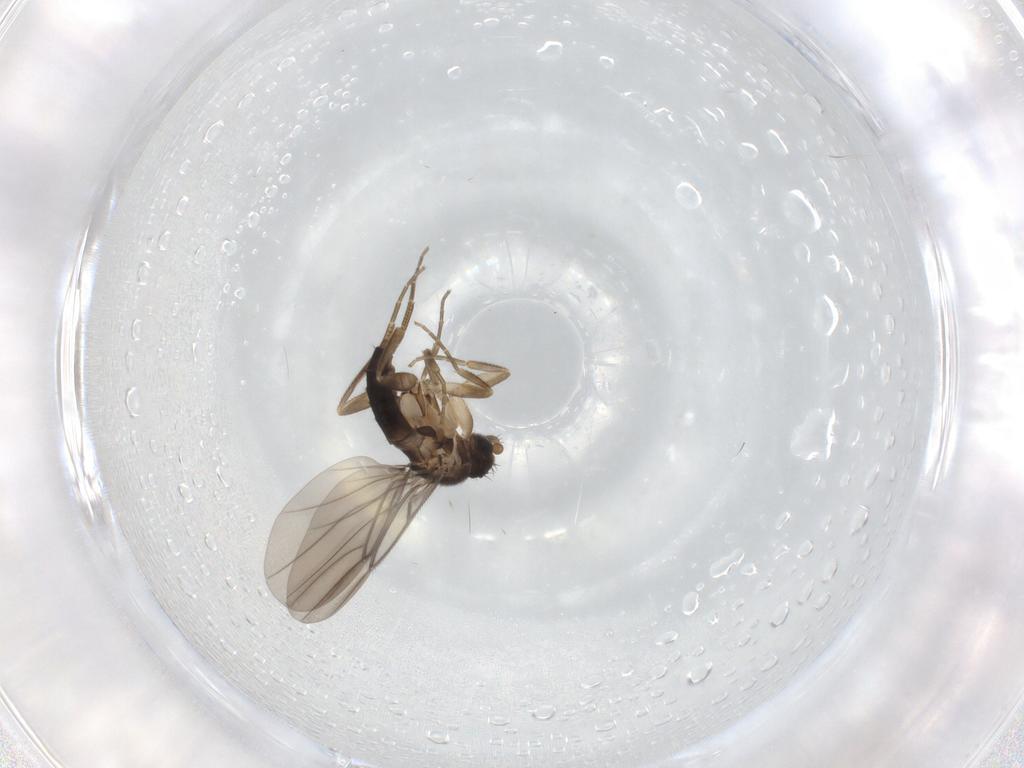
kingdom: Animalia
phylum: Arthropoda
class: Insecta
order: Diptera
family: Phoridae
